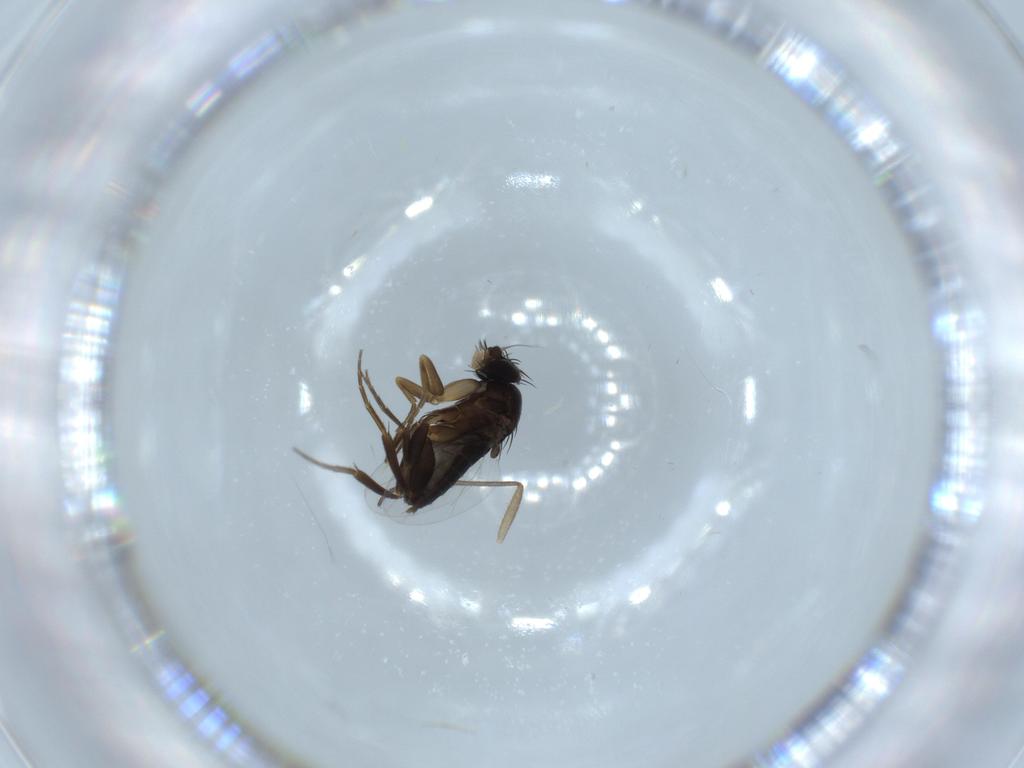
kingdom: Animalia
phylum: Arthropoda
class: Insecta
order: Diptera
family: Phoridae
